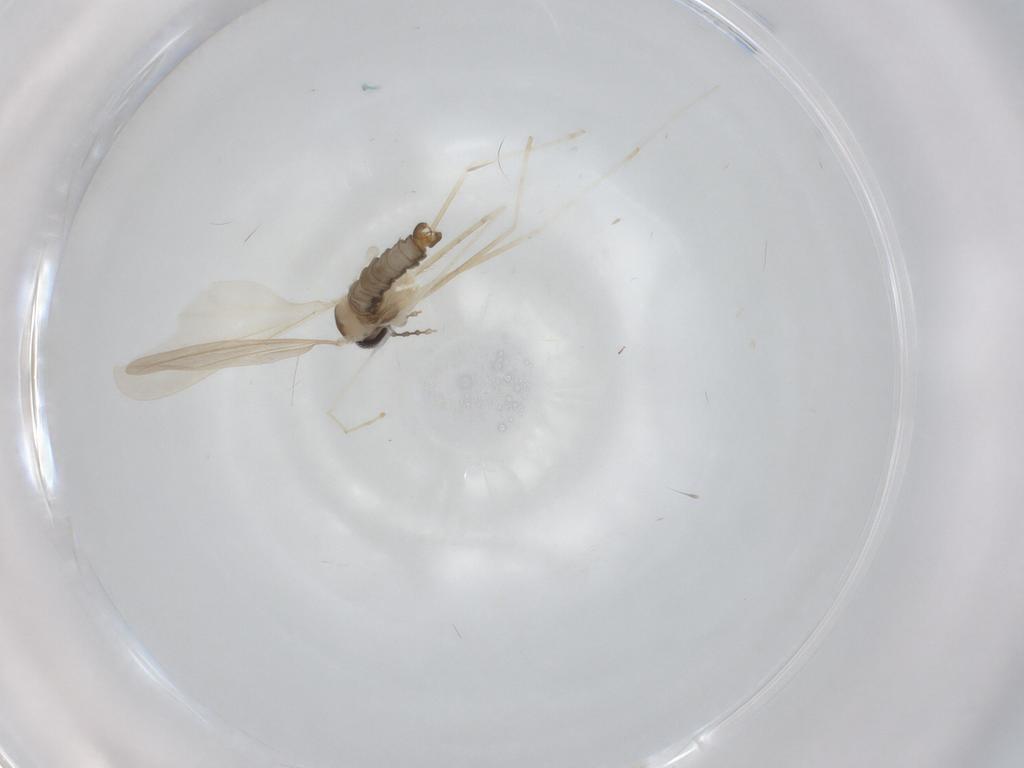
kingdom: Animalia
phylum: Arthropoda
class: Insecta
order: Diptera
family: Cecidomyiidae
